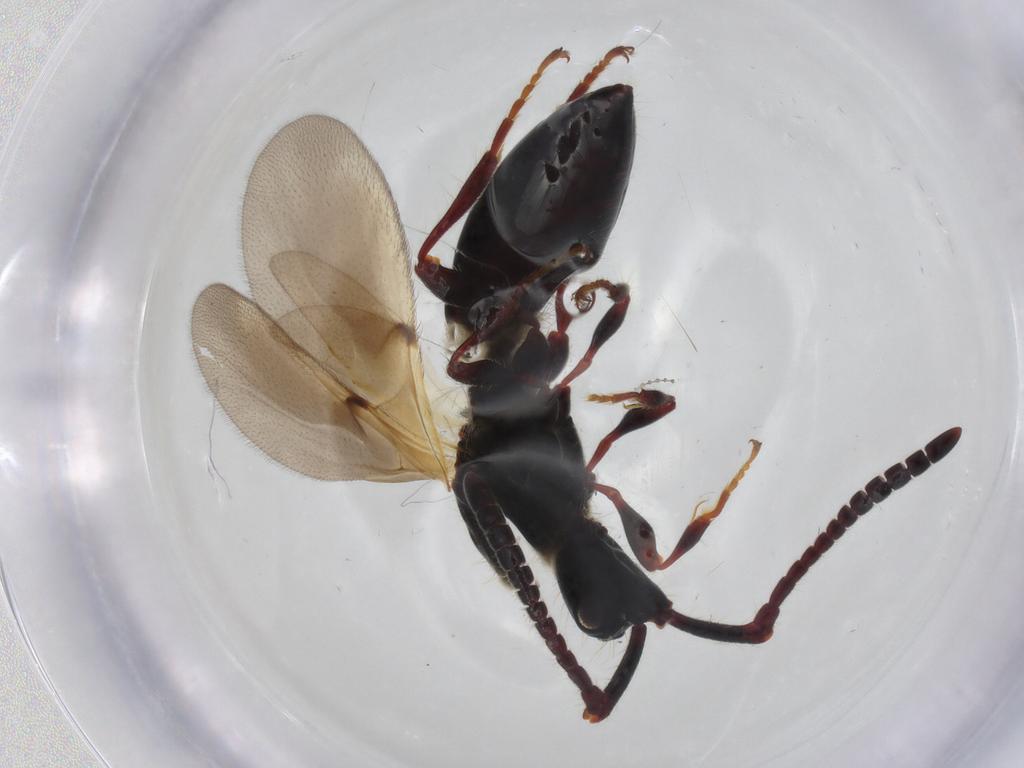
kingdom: Animalia
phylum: Arthropoda
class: Insecta
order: Hymenoptera
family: Diapriidae
